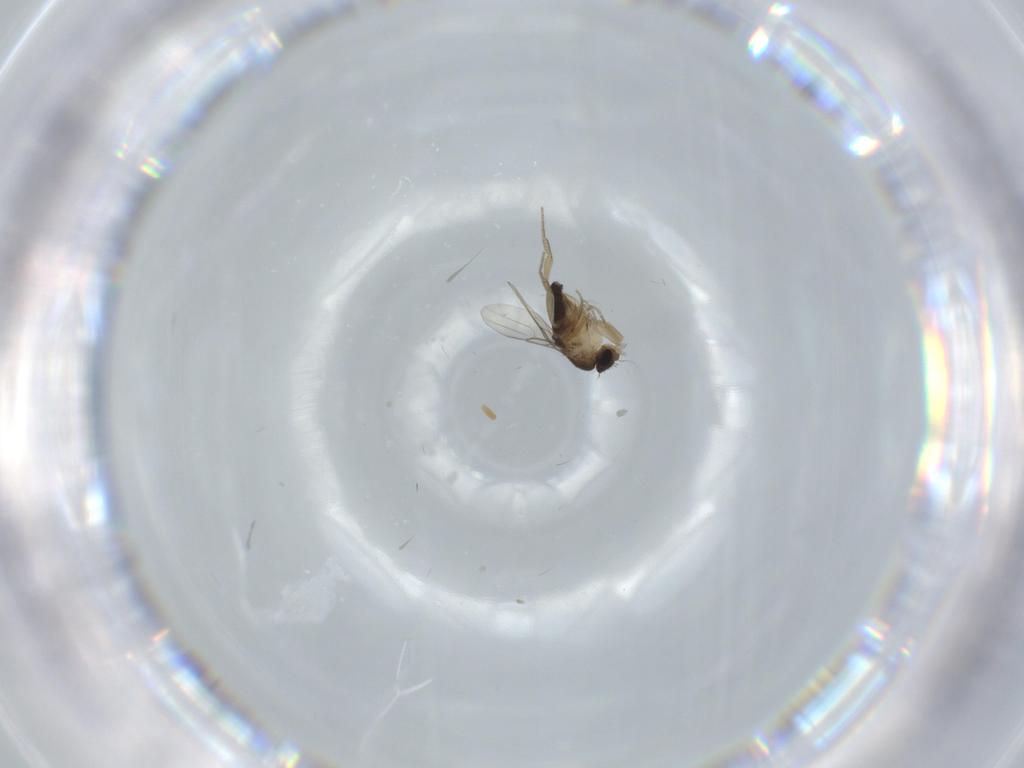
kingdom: Animalia
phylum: Arthropoda
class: Insecta
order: Diptera
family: Phoridae
